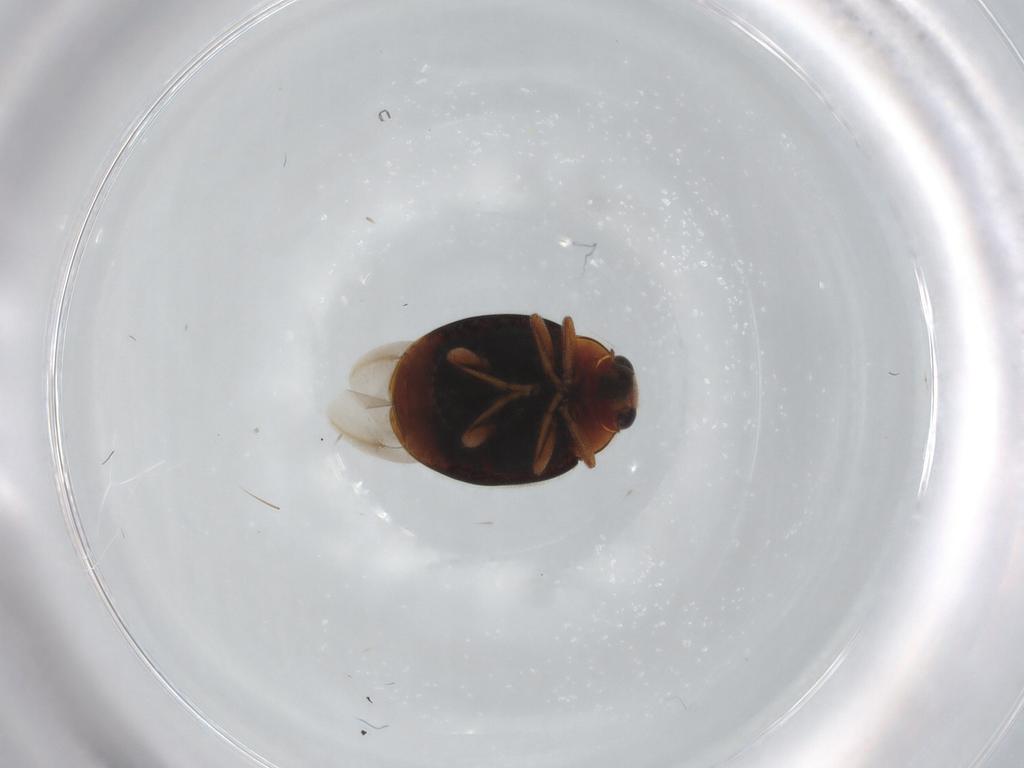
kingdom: Animalia
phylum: Arthropoda
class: Insecta
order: Coleoptera
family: Coccinellidae
